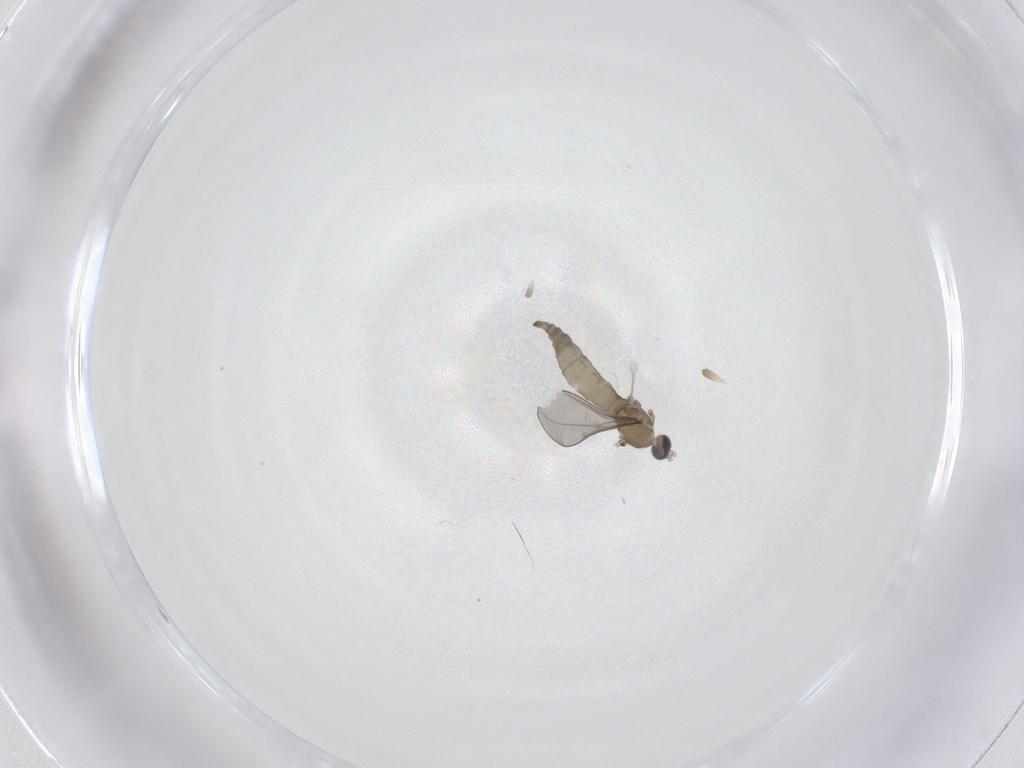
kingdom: Animalia
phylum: Arthropoda
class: Insecta
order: Diptera
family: Cecidomyiidae
